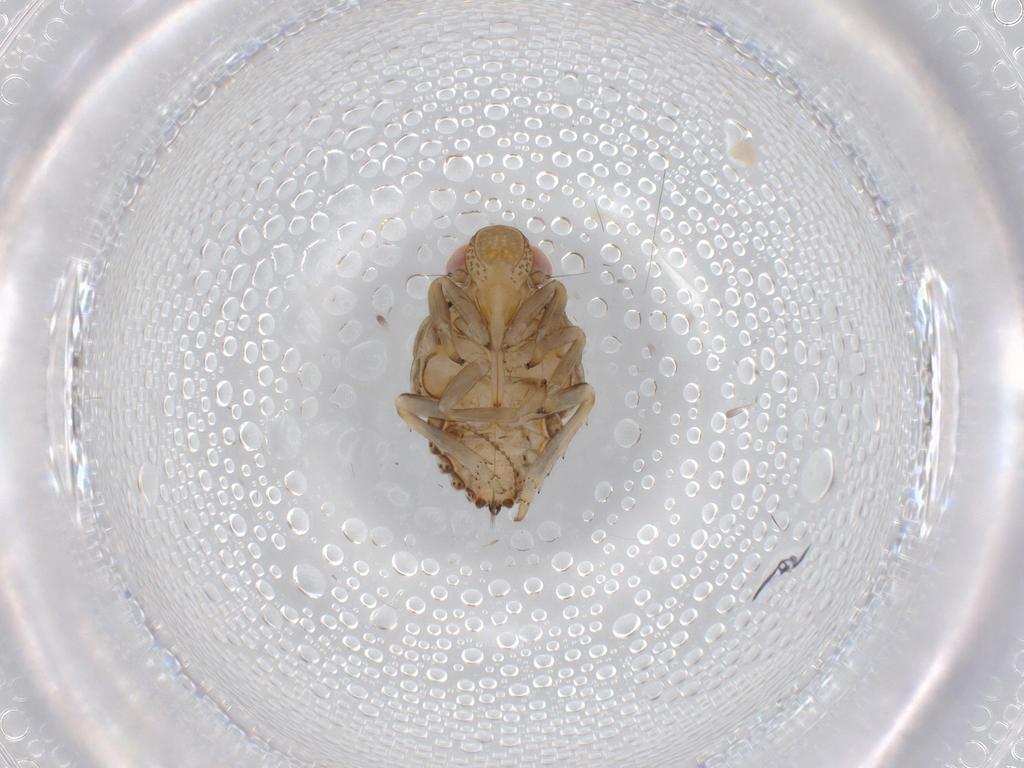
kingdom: Animalia
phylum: Arthropoda
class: Insecta
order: Hemiptera
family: Issidae
